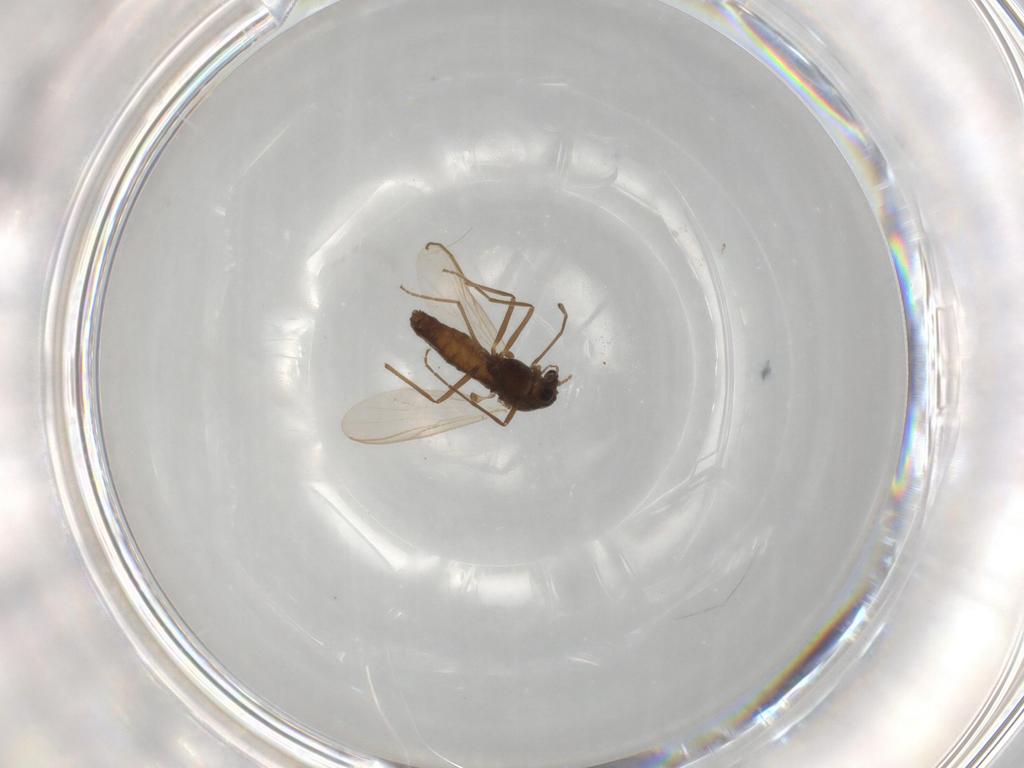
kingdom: Animalia
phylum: Arthropoda
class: Insecta
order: Diptera
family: Chironomidae
